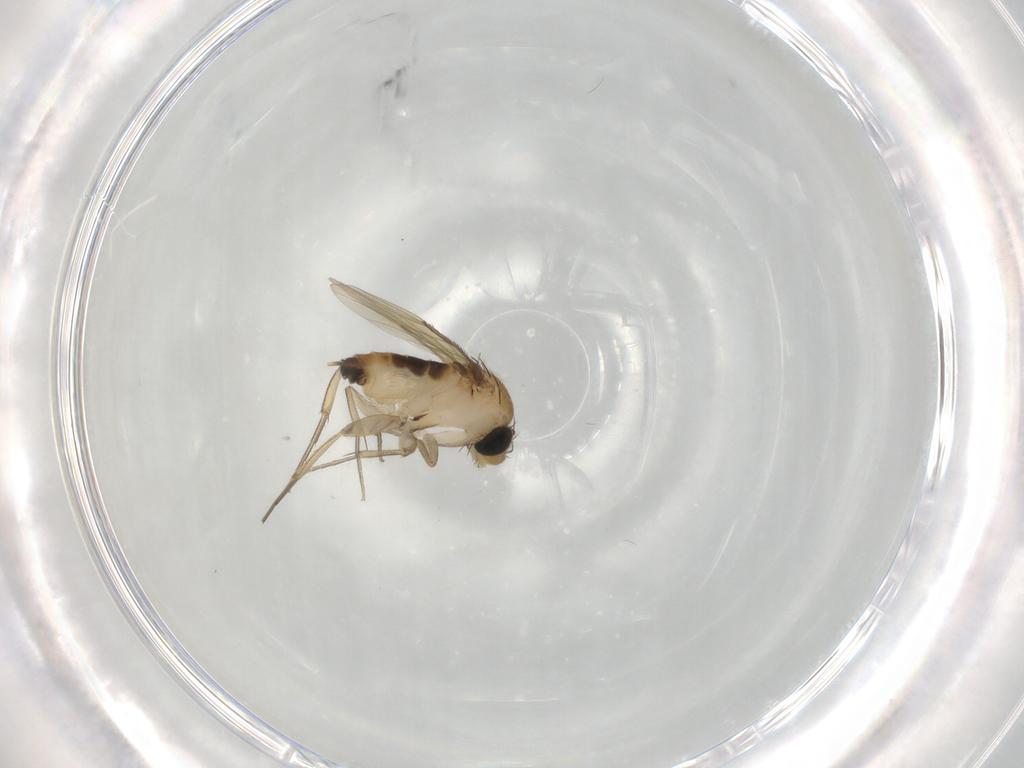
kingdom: Animalia
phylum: Arthropoda
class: Insecta
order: Diptera
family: Phoridae
